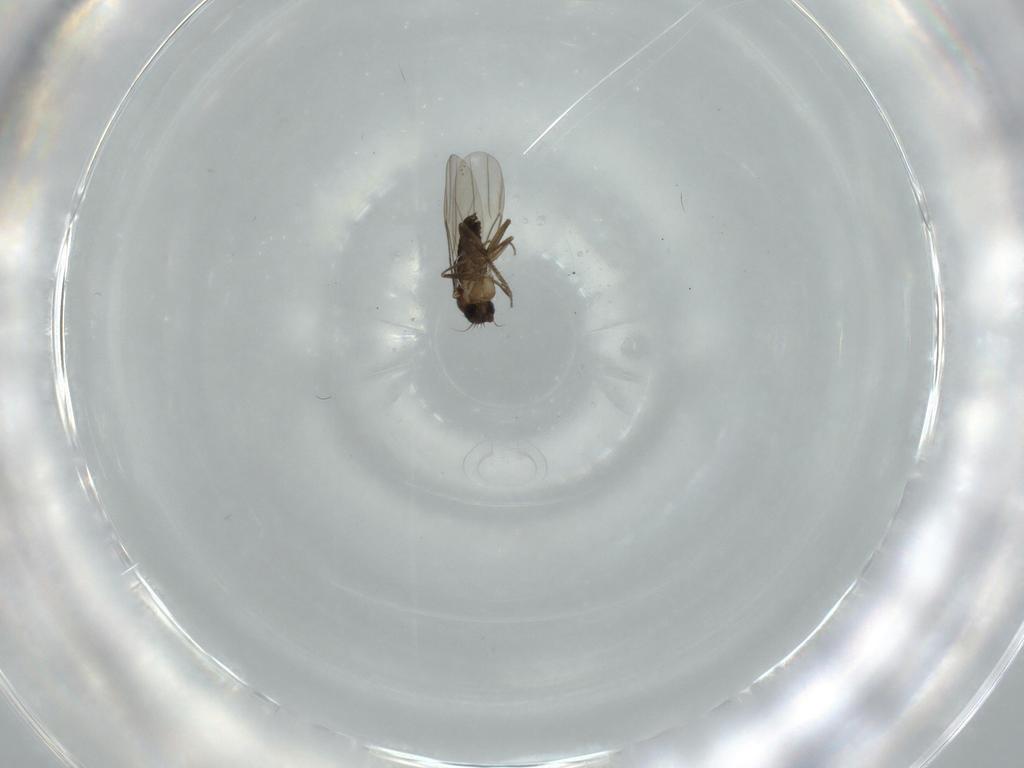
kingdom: Animalia
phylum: Arthropoda
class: Insecta
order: Diptera
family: Phoridae
